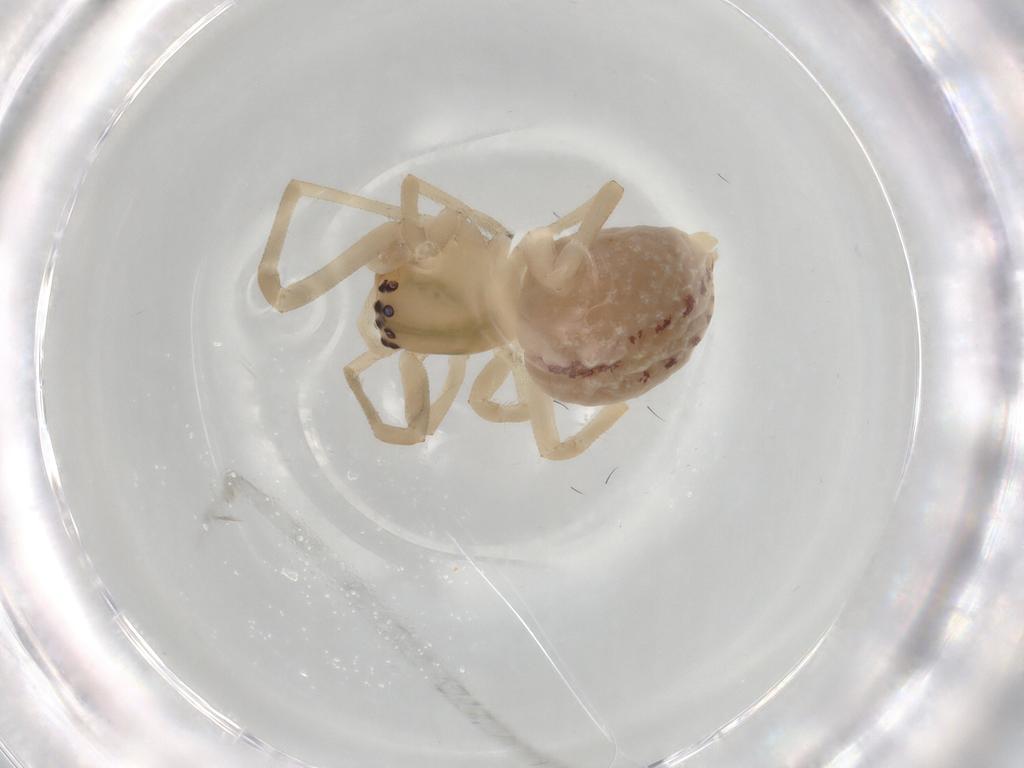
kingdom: Animalia
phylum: Arthropoda
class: Arachnida
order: Araneae
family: Cheiracanthiidae
